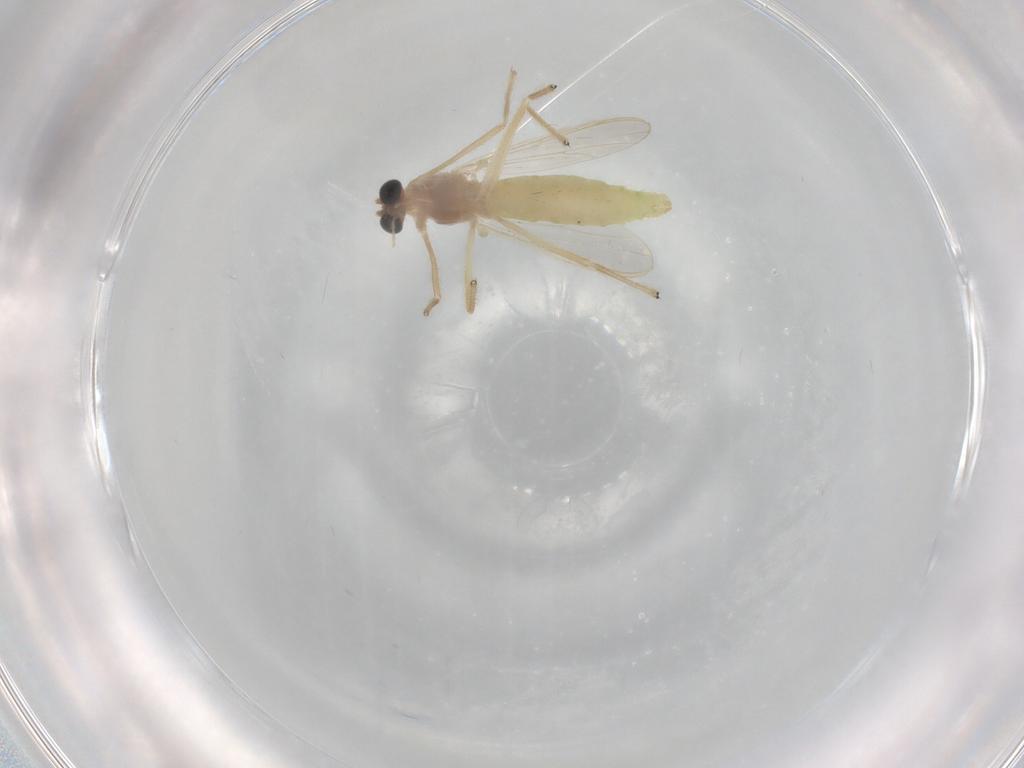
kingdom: Animalia
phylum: Arthropoda
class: Insecta
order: Diptera
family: Chironomidae
